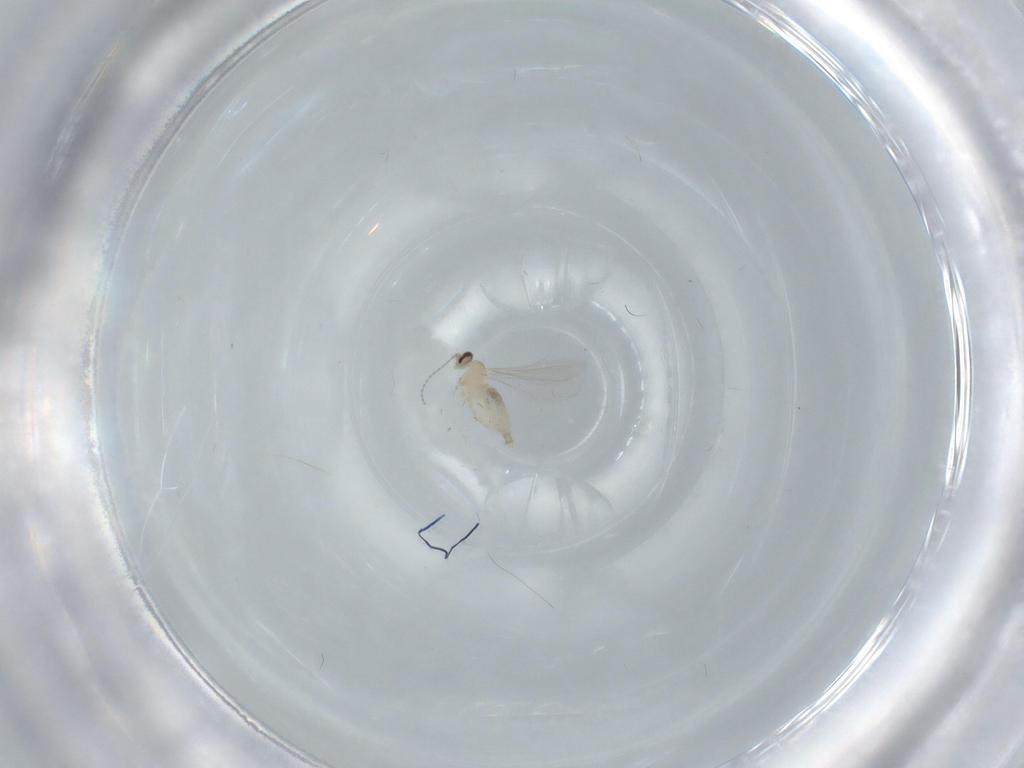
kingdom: Animalia
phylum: Arthropoda
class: Insecta
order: Diptera
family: Cecidomyiidae
